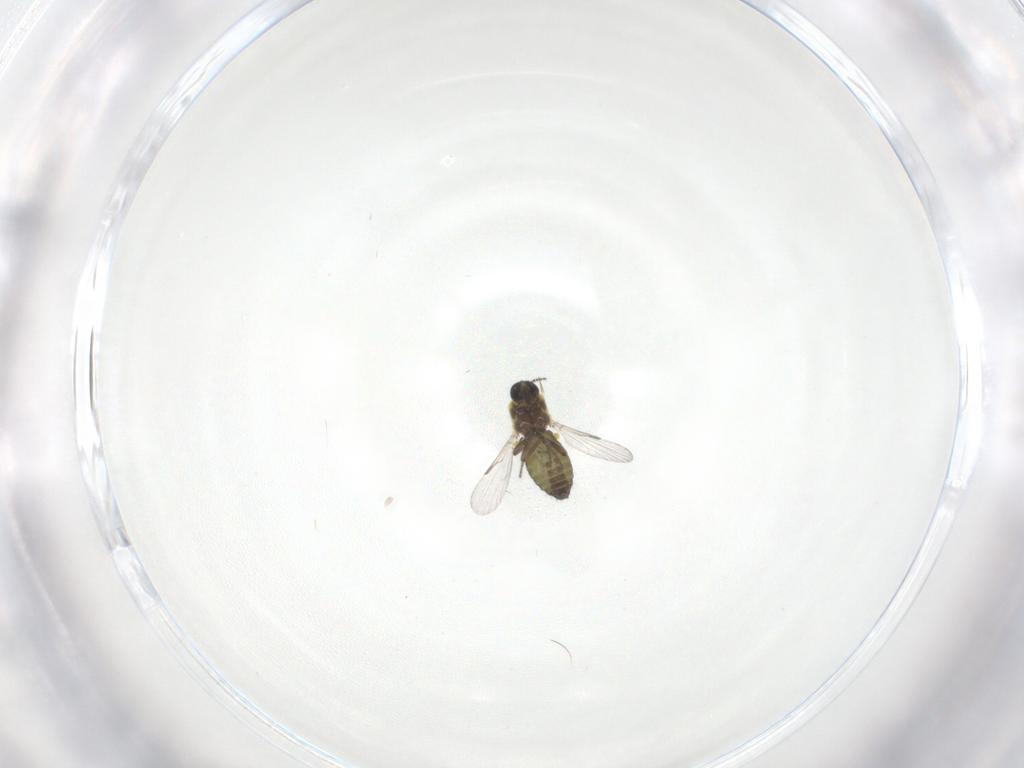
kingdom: Animalia
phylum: Arthropoda
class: Insecta
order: Diptera
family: Ceratopogonidae
